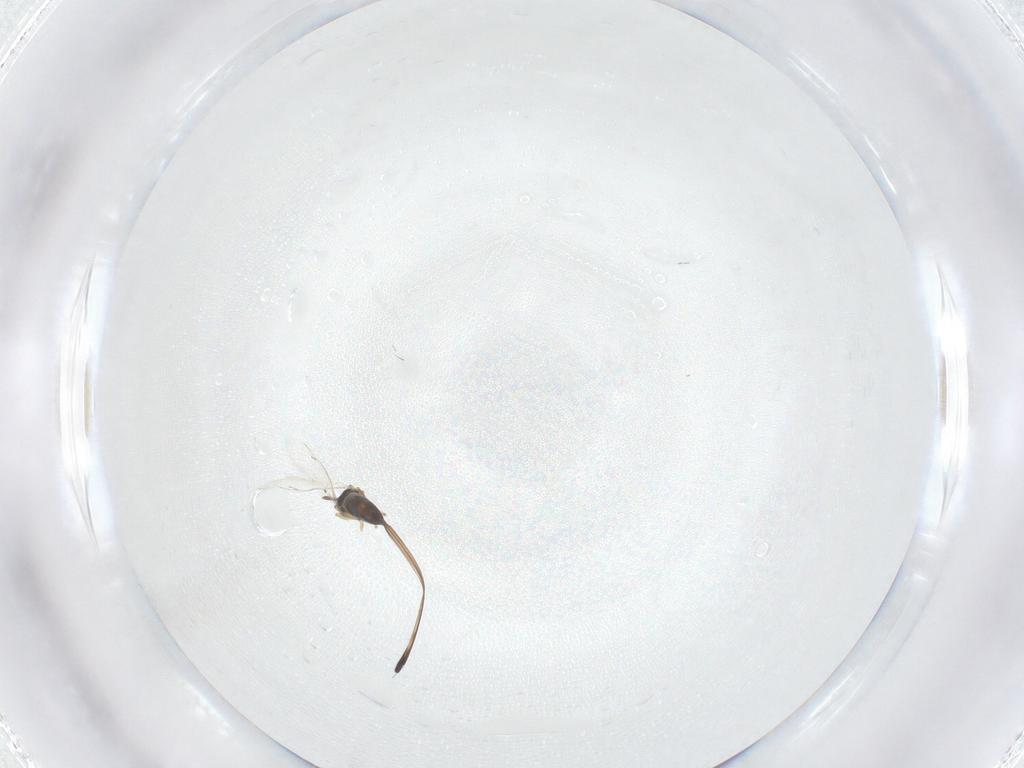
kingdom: Animalia
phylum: Arthropoda
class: Insecta
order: Hymenoptera
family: Pteromalidae
